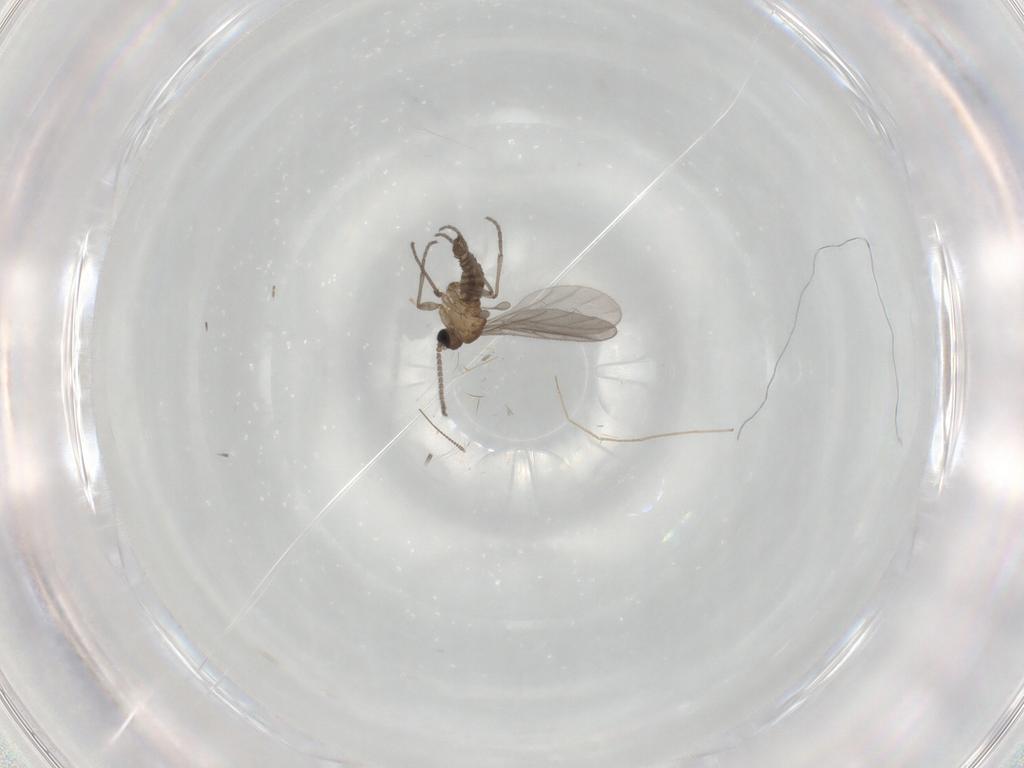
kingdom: Animalia
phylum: Arthropoda
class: Insecta
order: Diptera
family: Sciaridae
